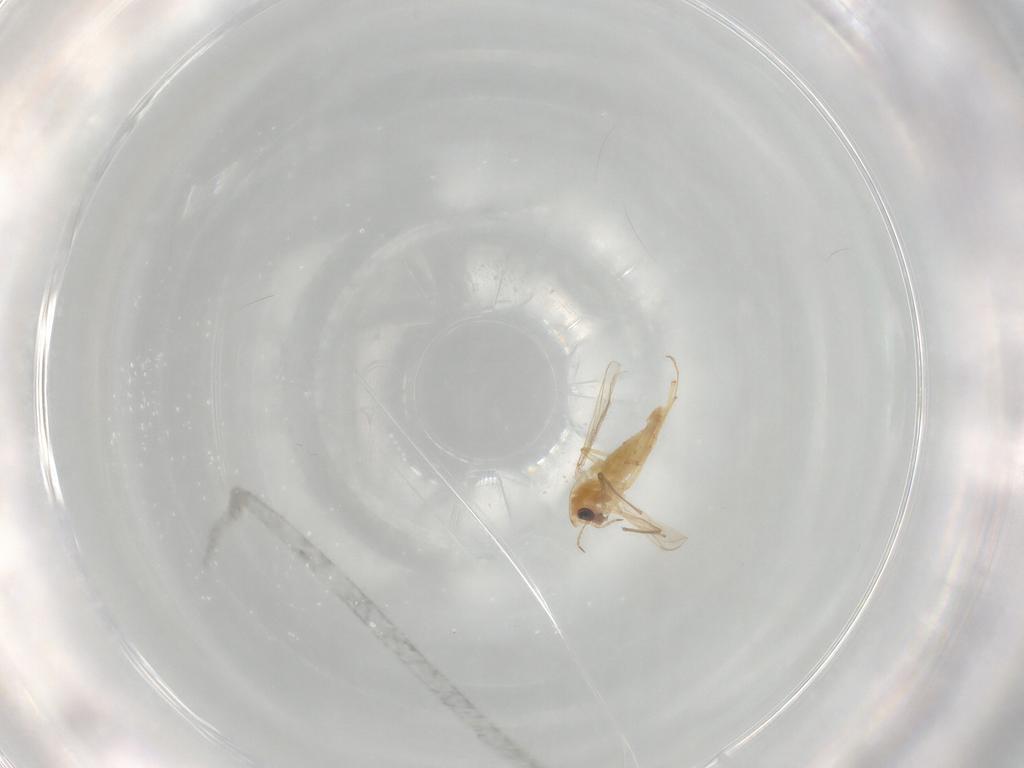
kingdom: Animalia
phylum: Arthropoda
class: Insecta
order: Diptera
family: Chironomidae
